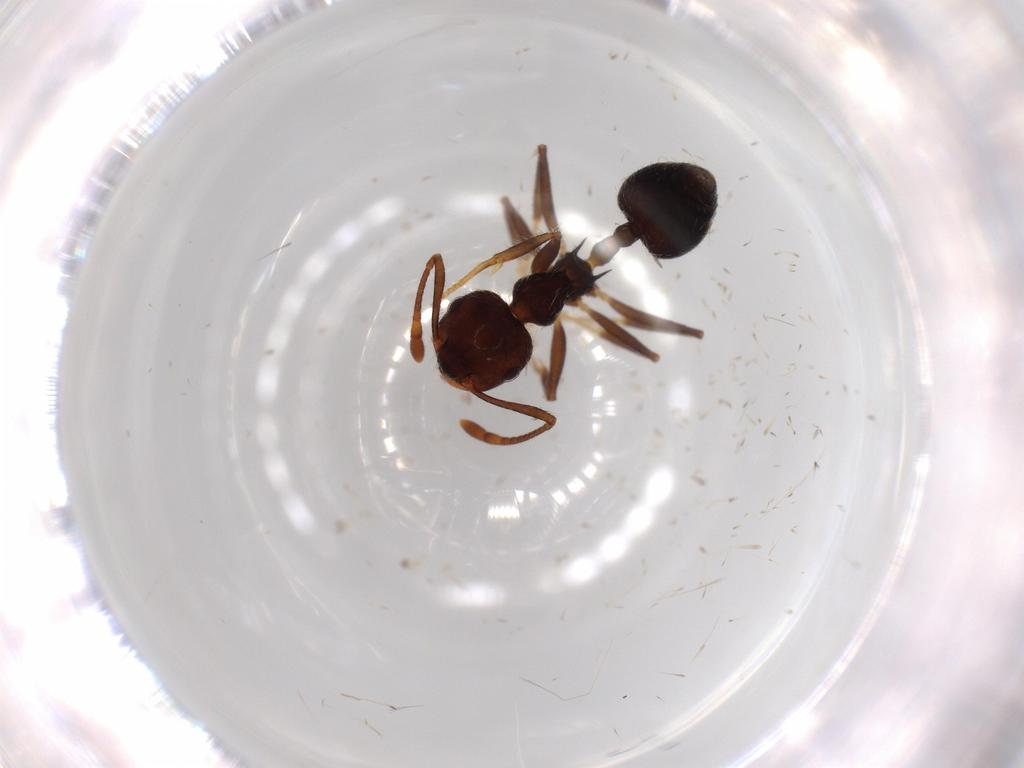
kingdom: Animalia
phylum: Arthropoda
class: Insecta
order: Hymenoptera
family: Formicidae
